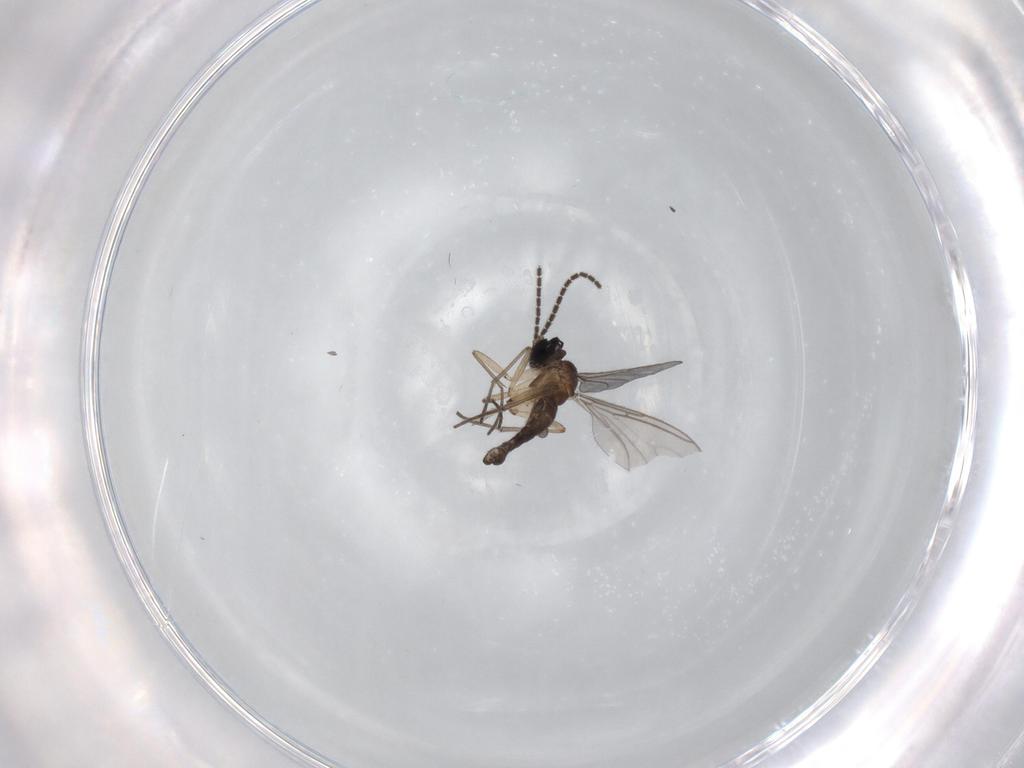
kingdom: Animalia
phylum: Arthropoda
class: Insecta
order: Diptera
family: Sciaridae
